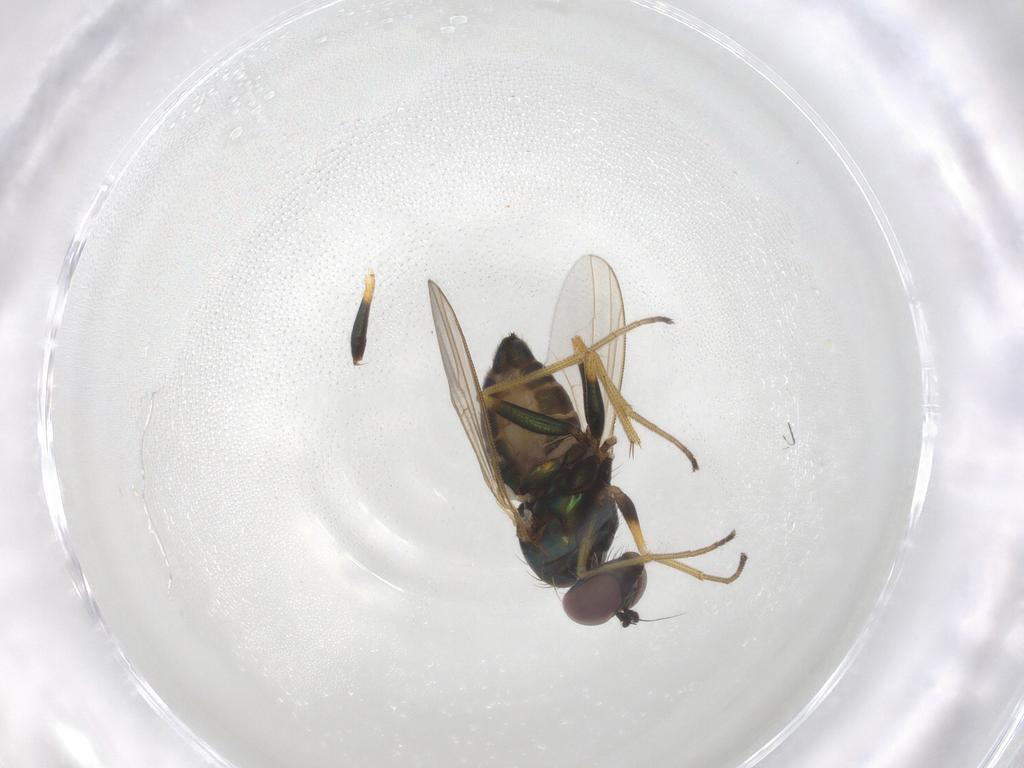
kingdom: Animalia
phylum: Arthropoda
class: Insecta
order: Diptera
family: Dolichopodidae
